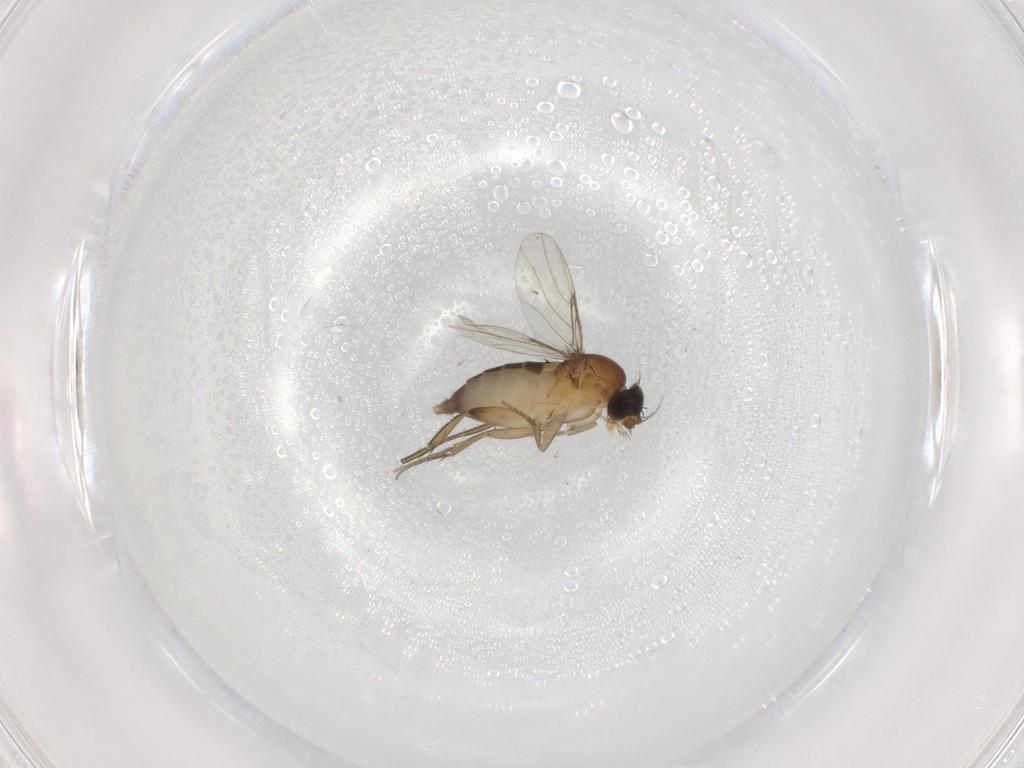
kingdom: Animalia
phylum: Arthropoda
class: Insecta
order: Diptera
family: Phoridae
